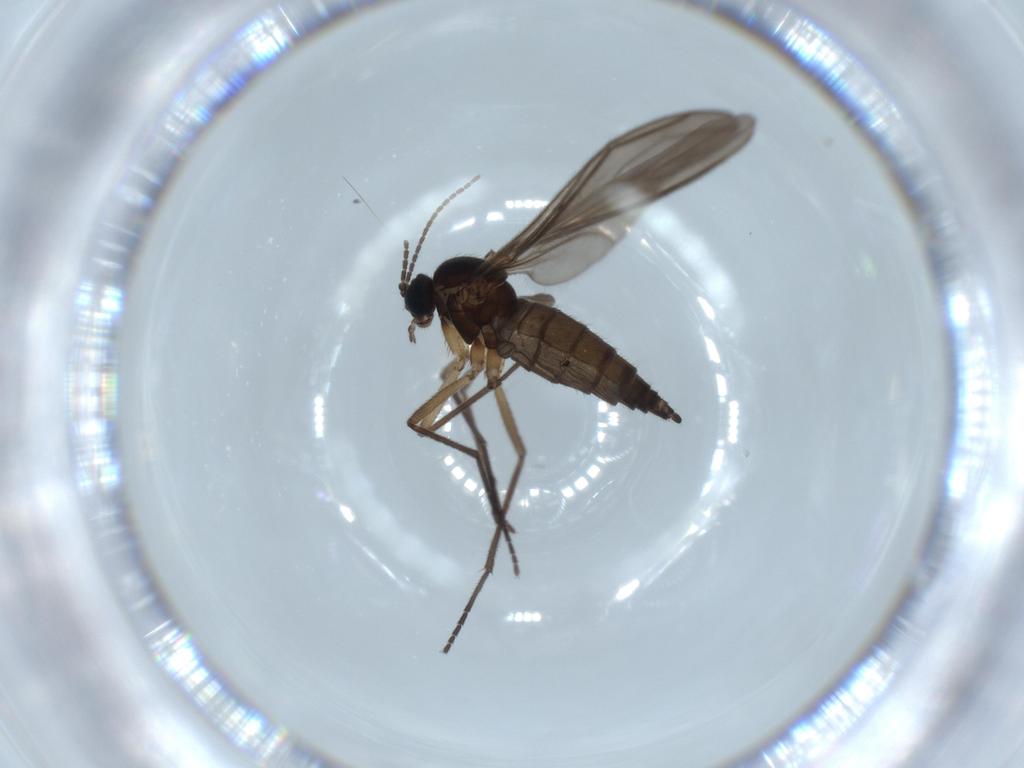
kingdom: Animalia
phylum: Arthropoda
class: Insecta
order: Diptera
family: Sciaridae
